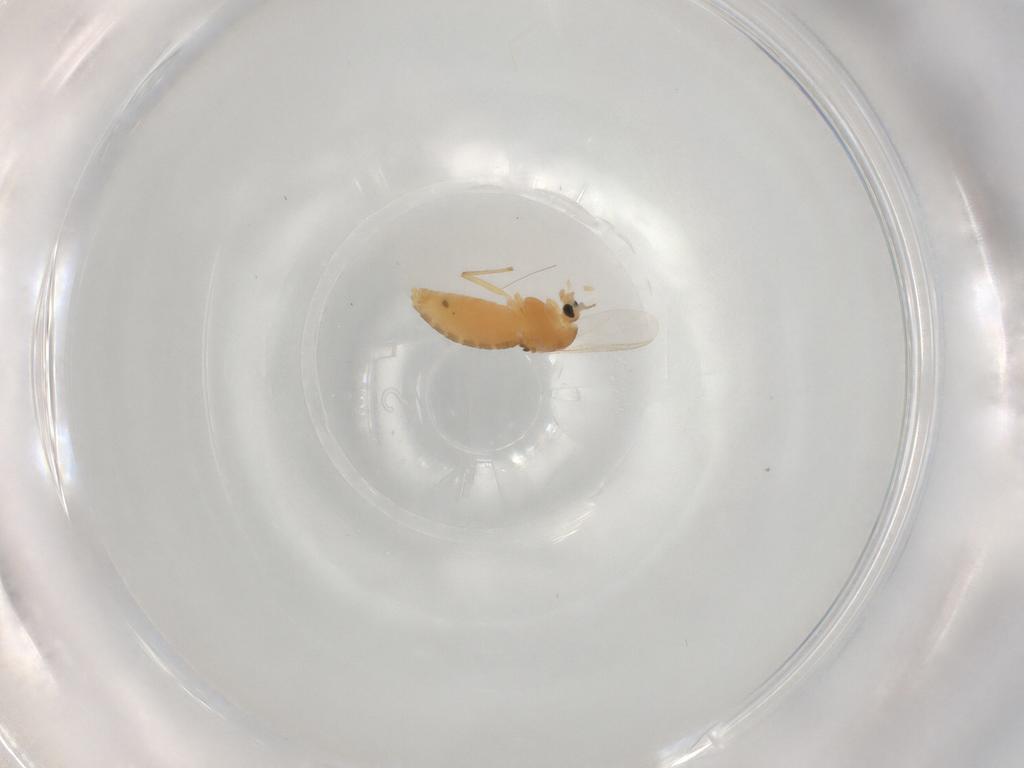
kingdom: Animalia
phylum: Arthropoda
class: Insecta
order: Diptera
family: Chironomidae
